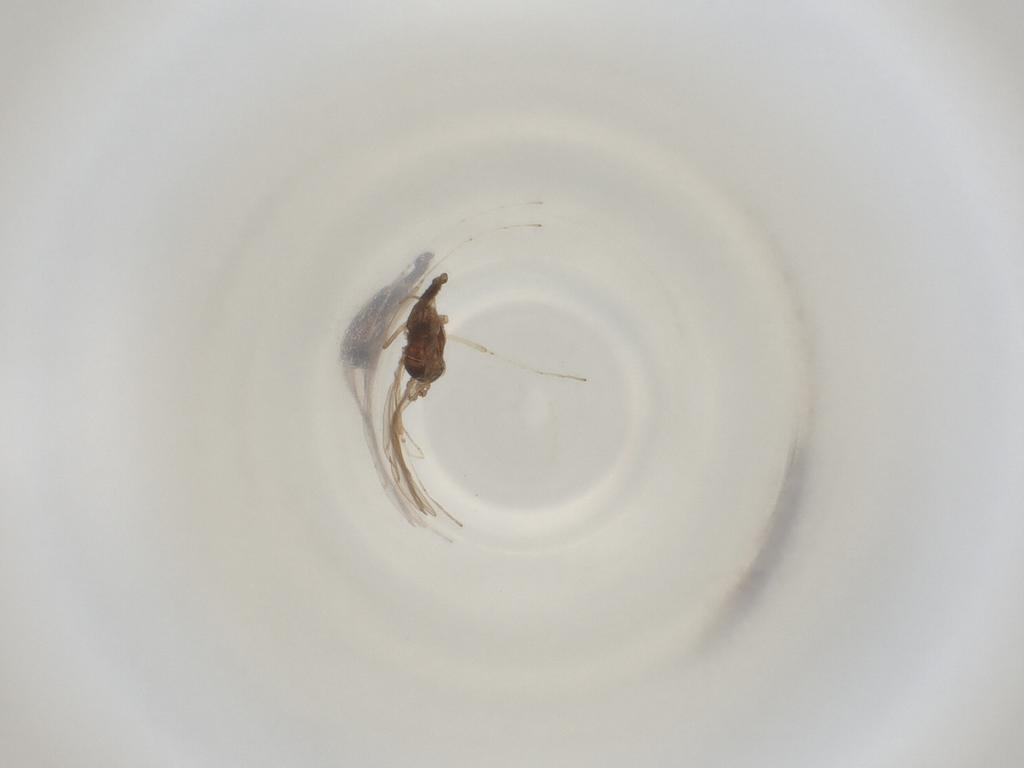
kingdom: Animalia
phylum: Arthropoda
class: Insecta
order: Diptera
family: Cecidomyiidae
